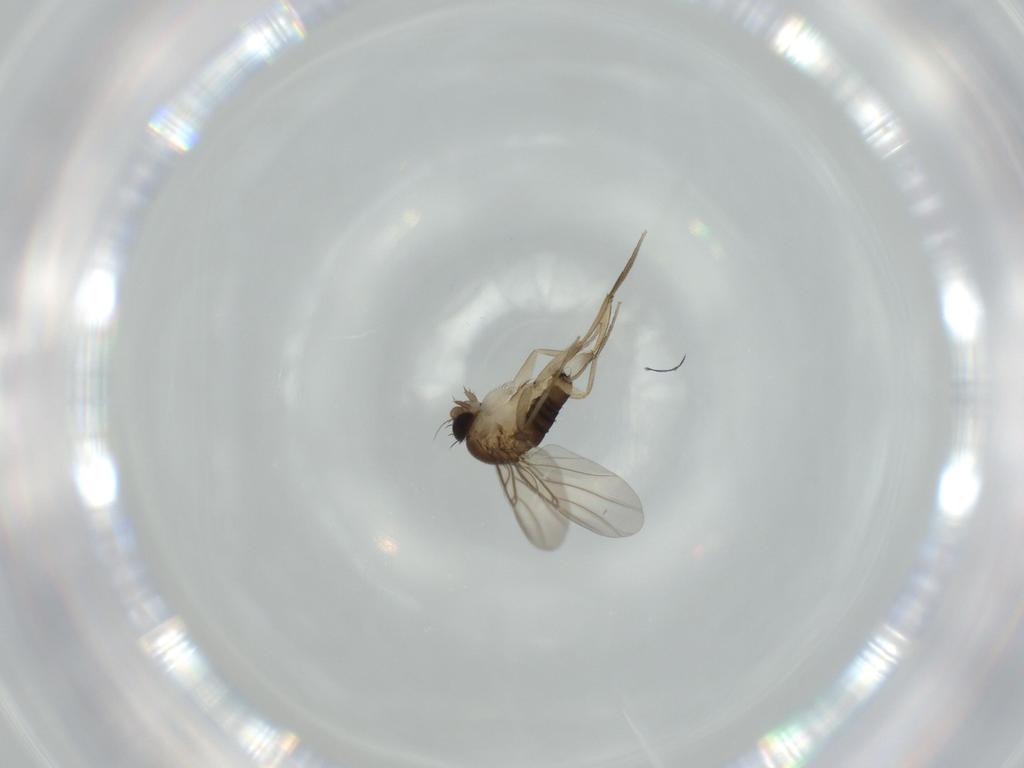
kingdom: Animalia
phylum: Arthropoda
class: Insecta
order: Diptera
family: Phoridae
